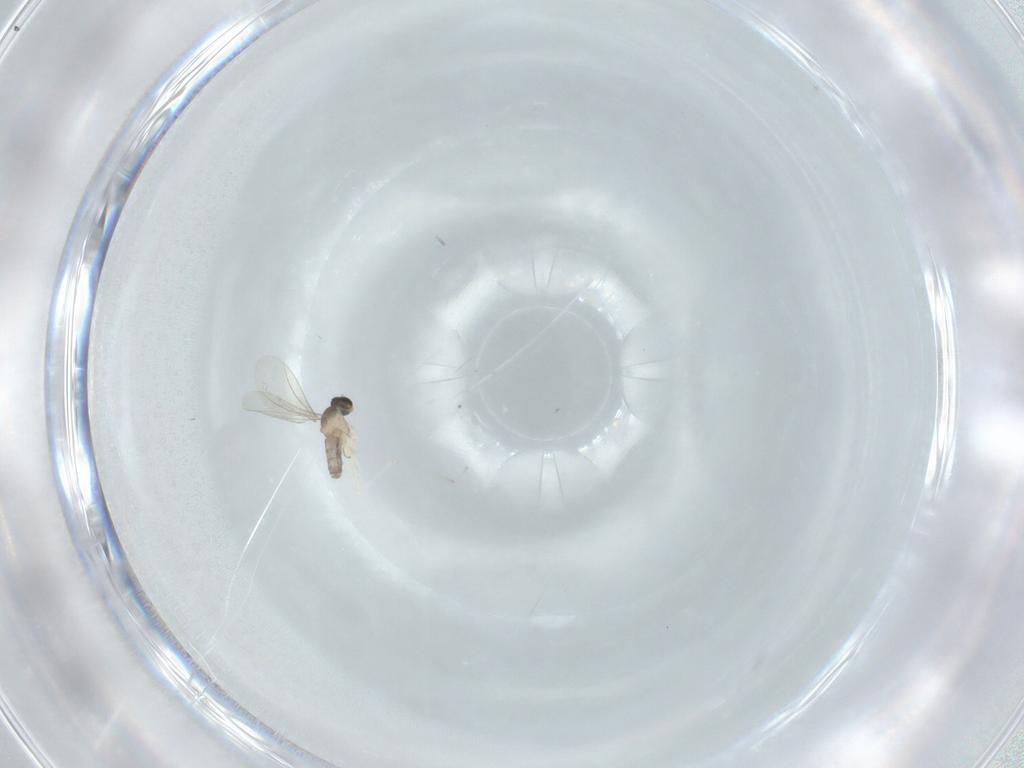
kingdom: Animalia
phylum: Arthropoda
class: Insecta
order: Diptera
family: Cecidomyiidae
